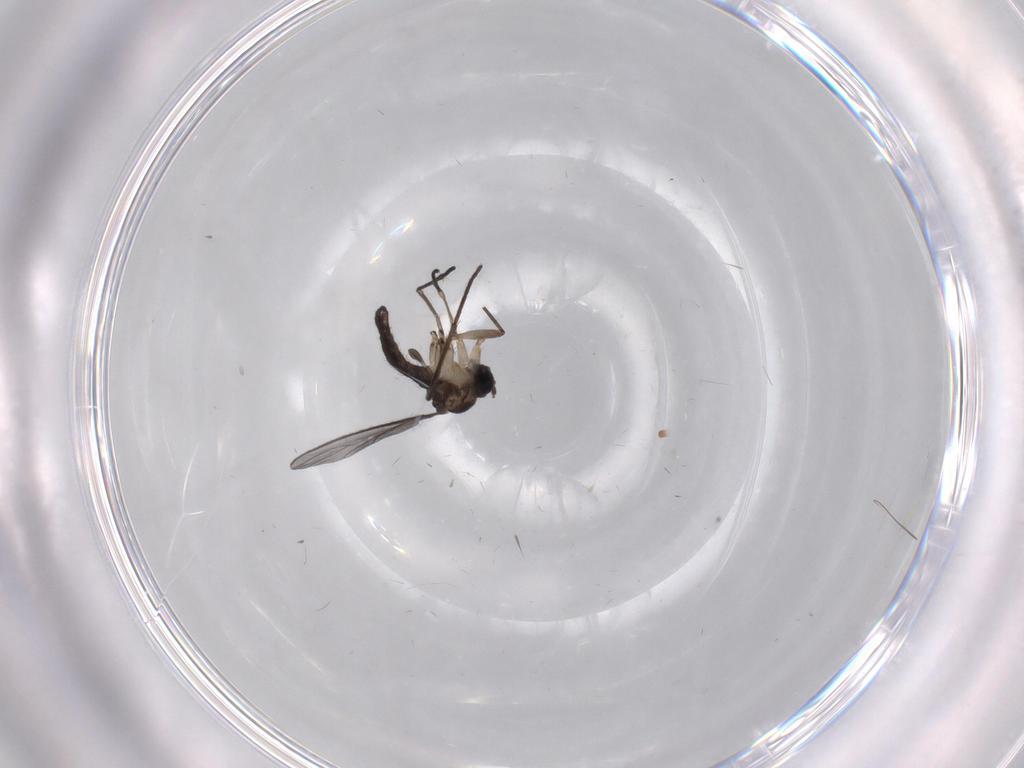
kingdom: Animalia
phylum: Arthropoda
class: Insecta
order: Diptera
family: Sciaridae
